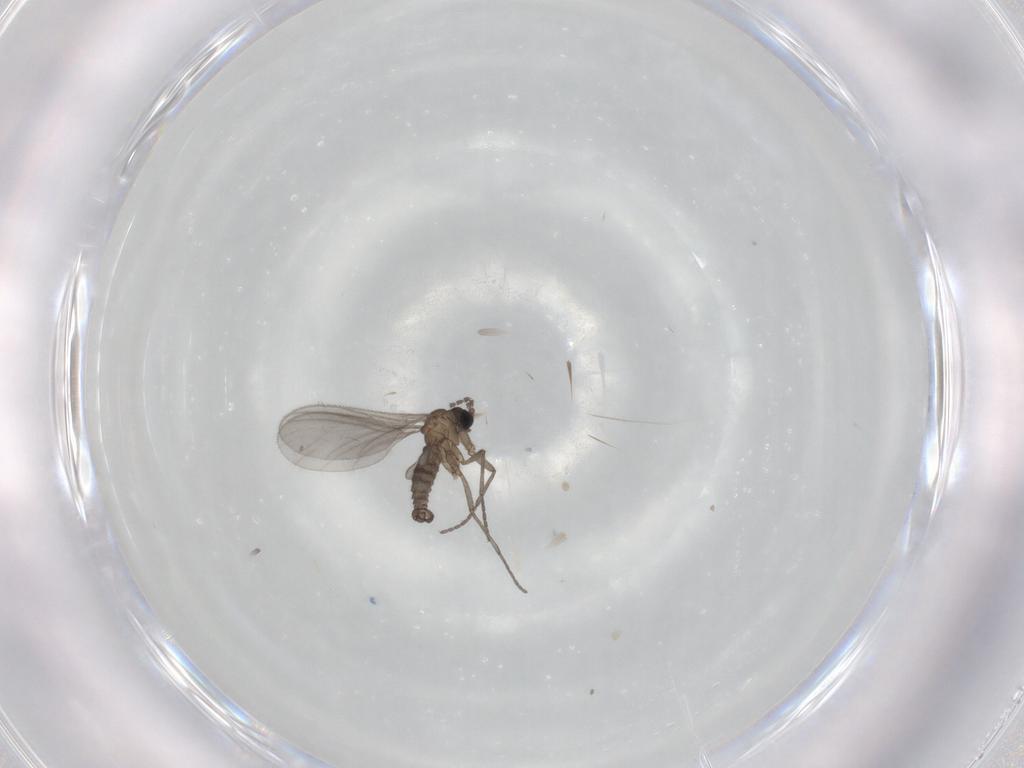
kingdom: Animalia
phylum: Arthropoda
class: Insecta
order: Diptera
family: Sciaridae
